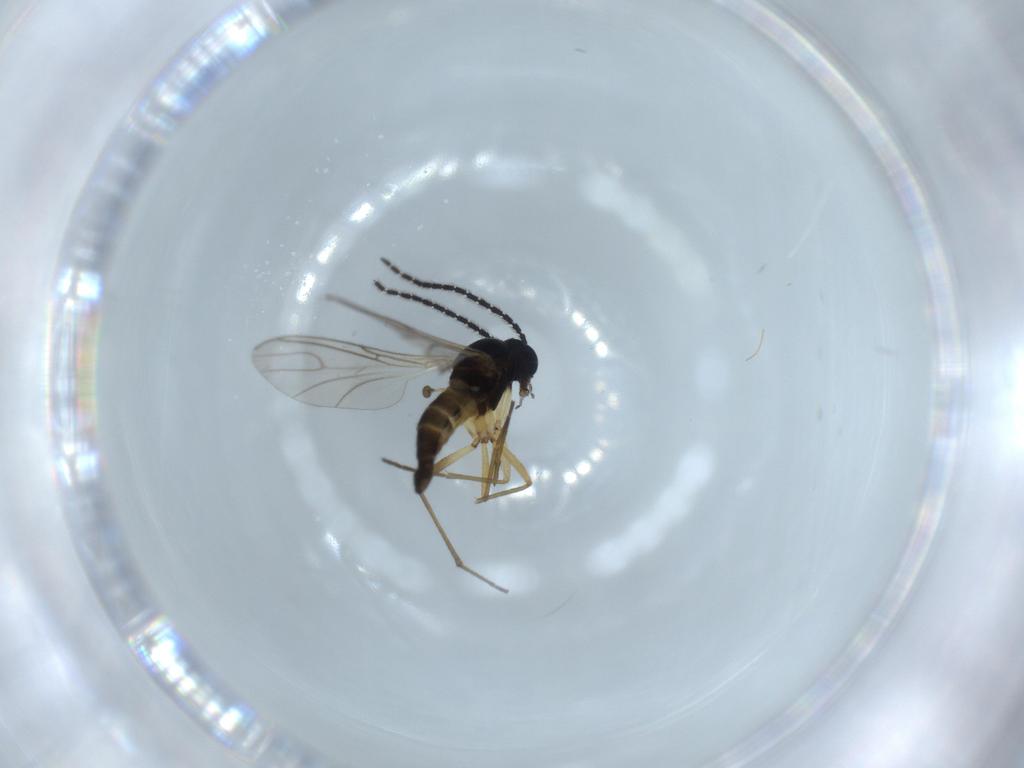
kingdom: Animalia
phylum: Arthropoda
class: Insecta
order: Diptera
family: Sciaridae
